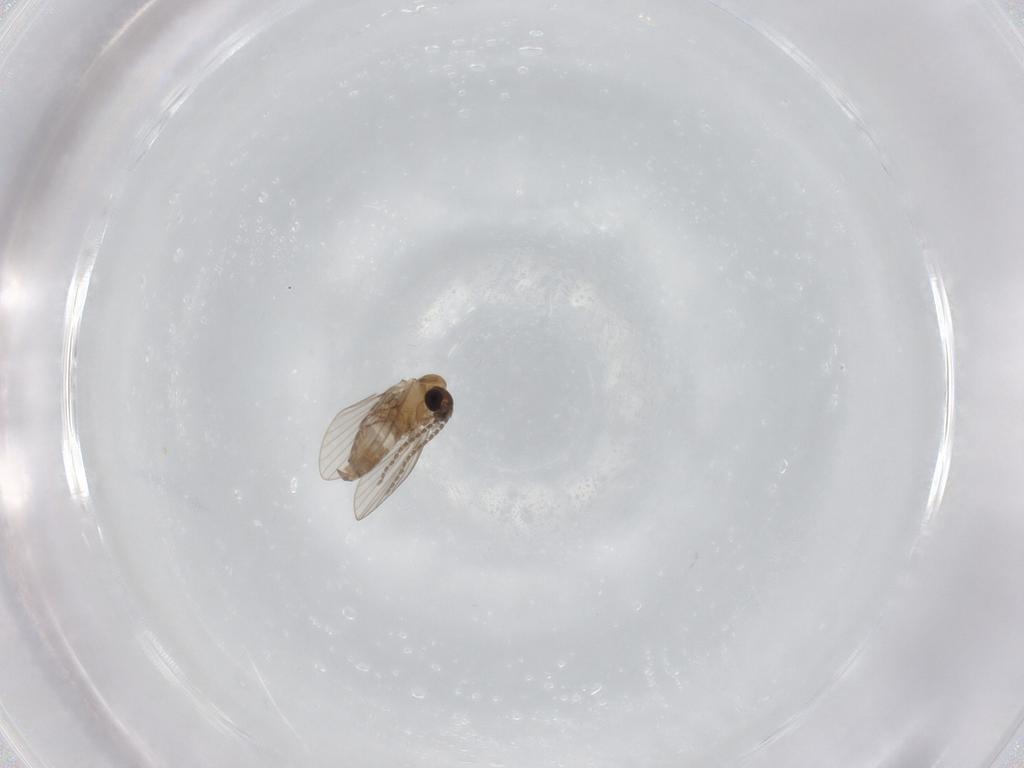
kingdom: Animalia
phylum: Arthropoda
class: Insecta
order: Diptera
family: Psychodidae
